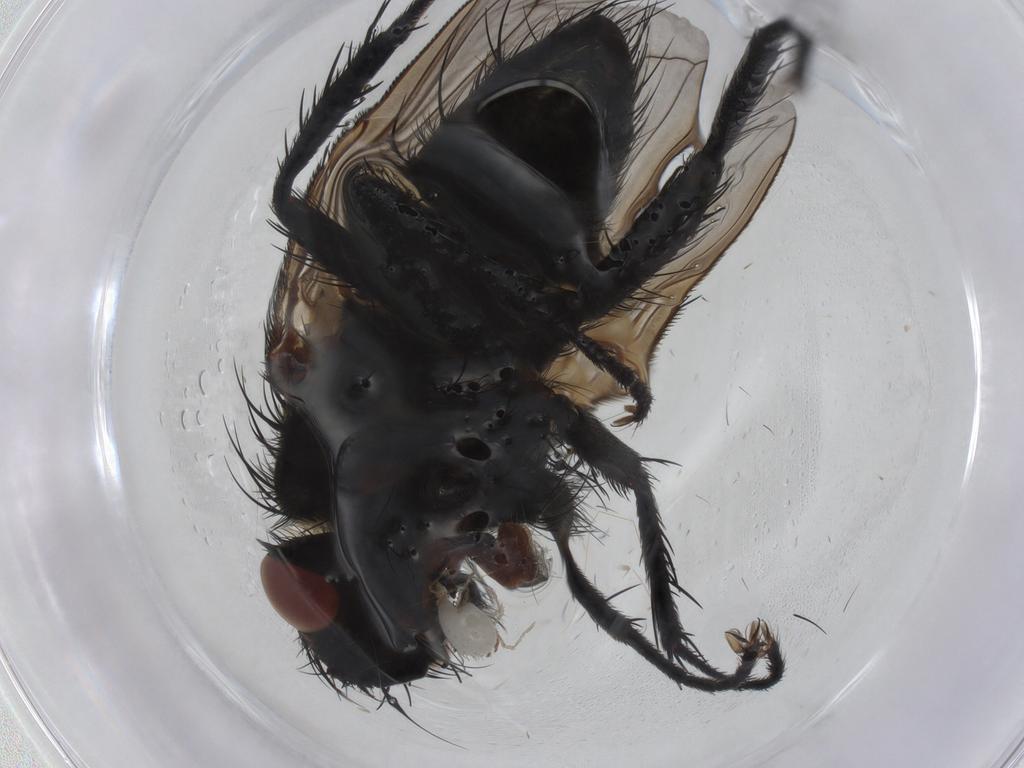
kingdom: Animalia
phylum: Arthropoda
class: Insecta
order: Diptera
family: Tachinidae
